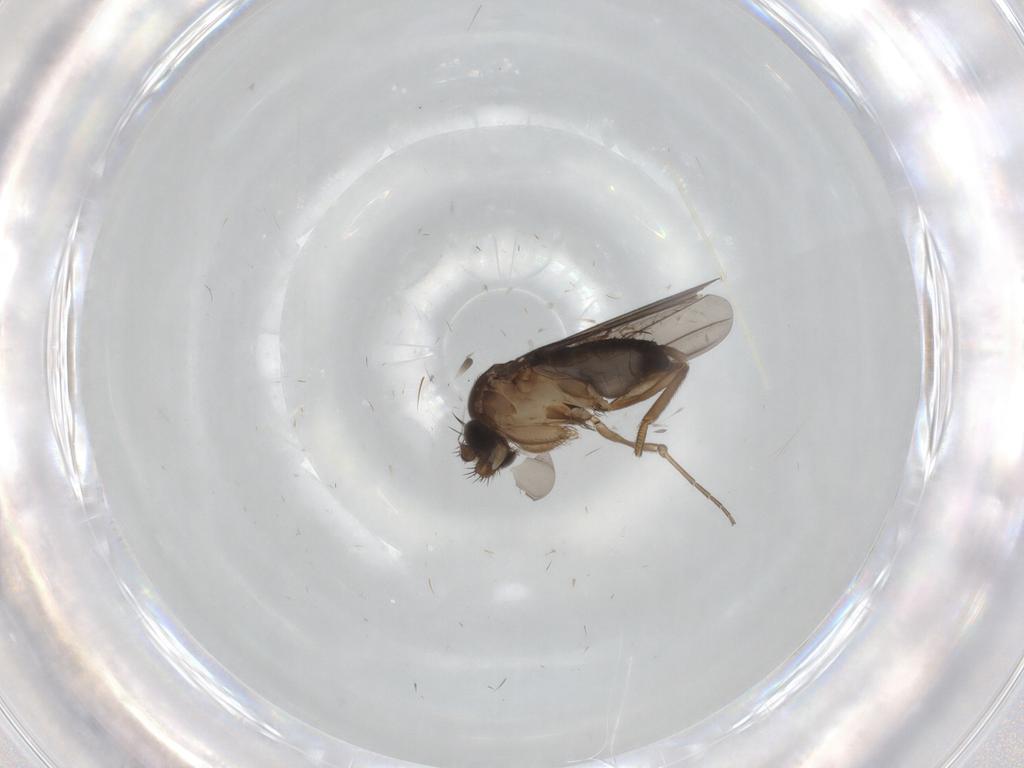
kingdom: Animalia
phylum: Arthropoda
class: Insecta
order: Diptera
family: Phoridae
